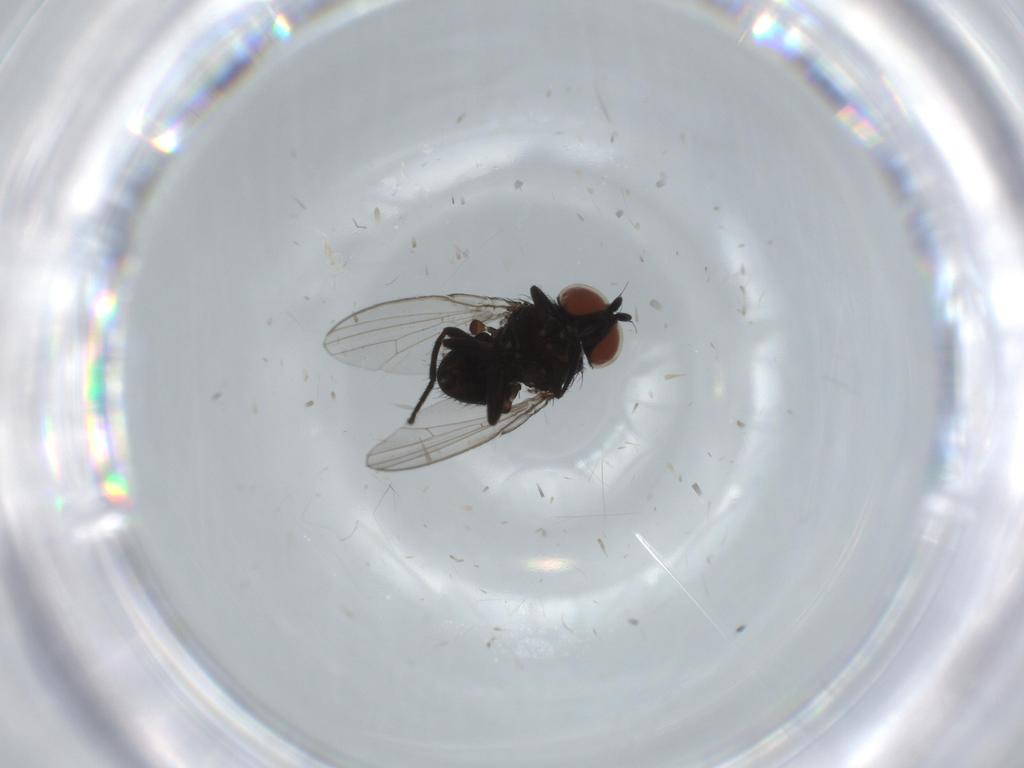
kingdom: Animalia
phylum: Arthropoda
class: Insecta
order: Diptera
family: Milichiidae
